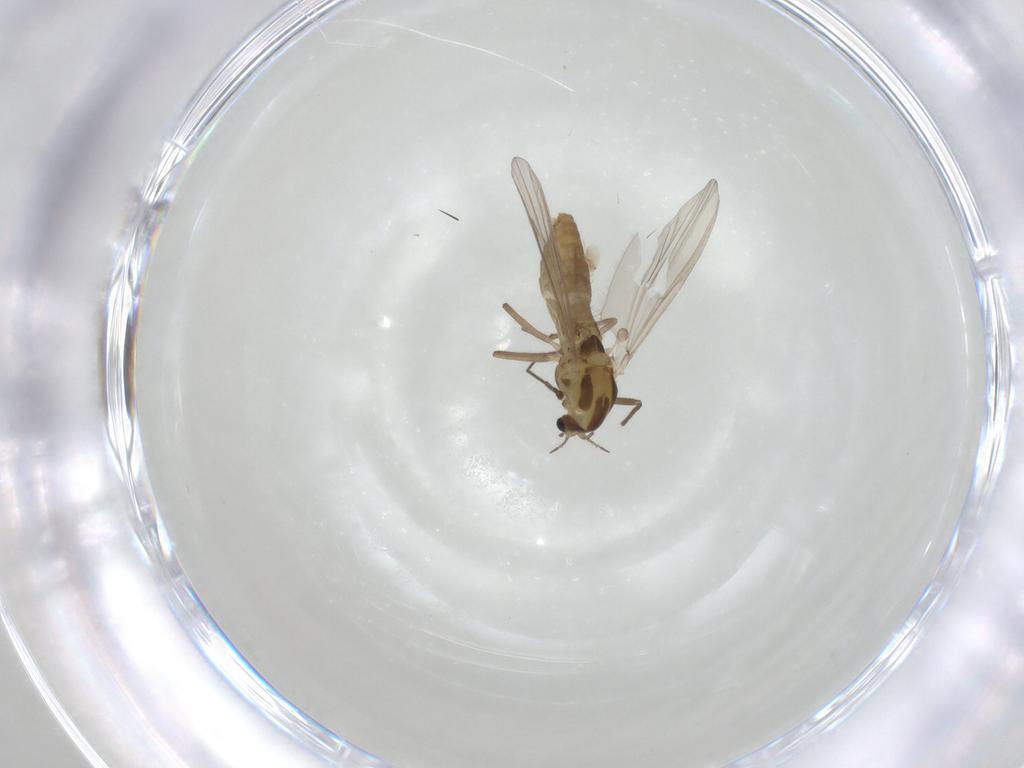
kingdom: Animalia
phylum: Arthropoda
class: Insecta
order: Diptera
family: Chironomidae
